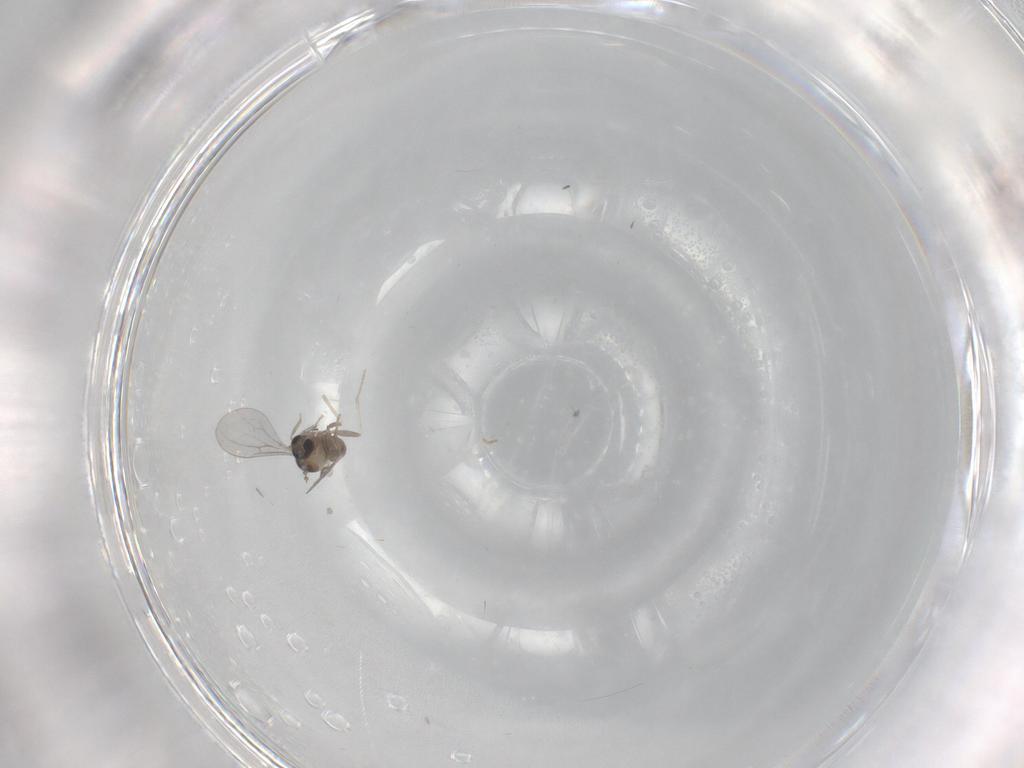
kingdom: Animalia
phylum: Arthropoda
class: Insecta
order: Diptera
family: Cecidomyiidae
